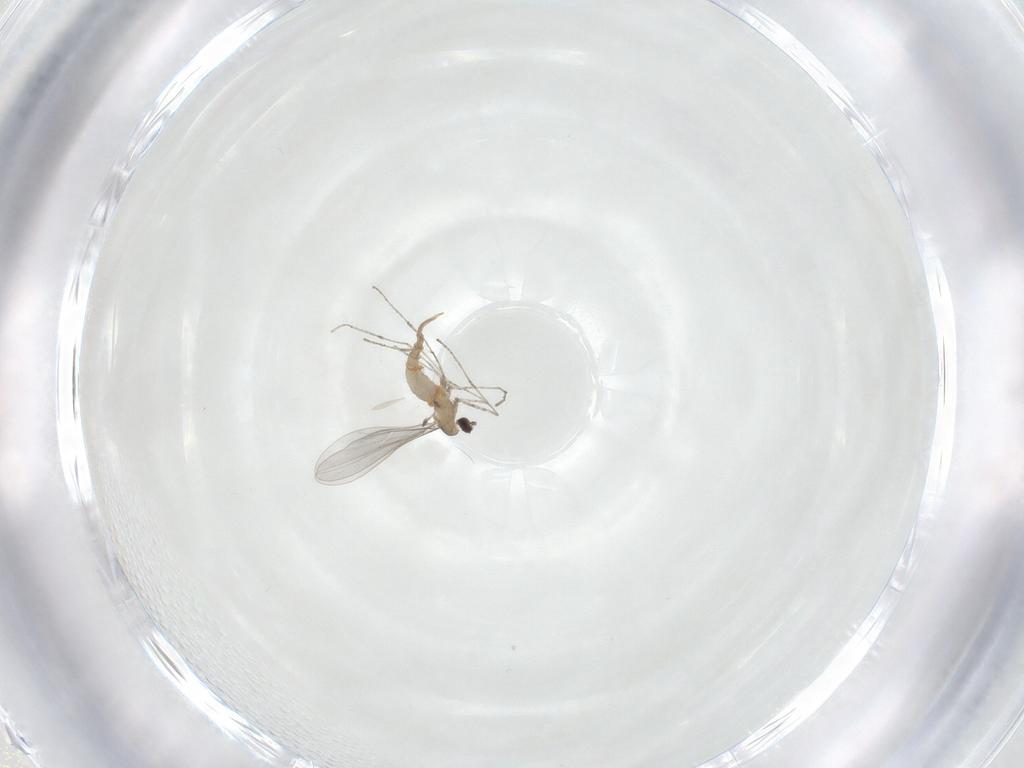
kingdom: Animalia
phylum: Arthropoda
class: Insecta
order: Diptera
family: Cecidomyiidae
